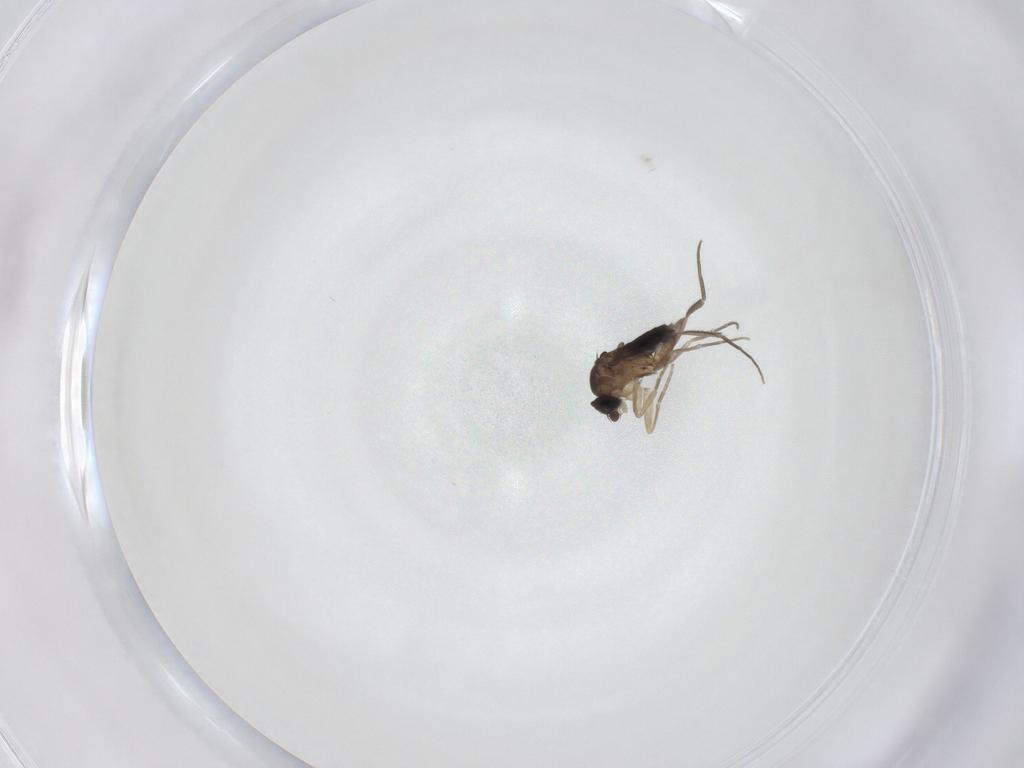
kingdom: Animalia
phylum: Arthropoda
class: Insecta
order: Diptera
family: Phoridae
